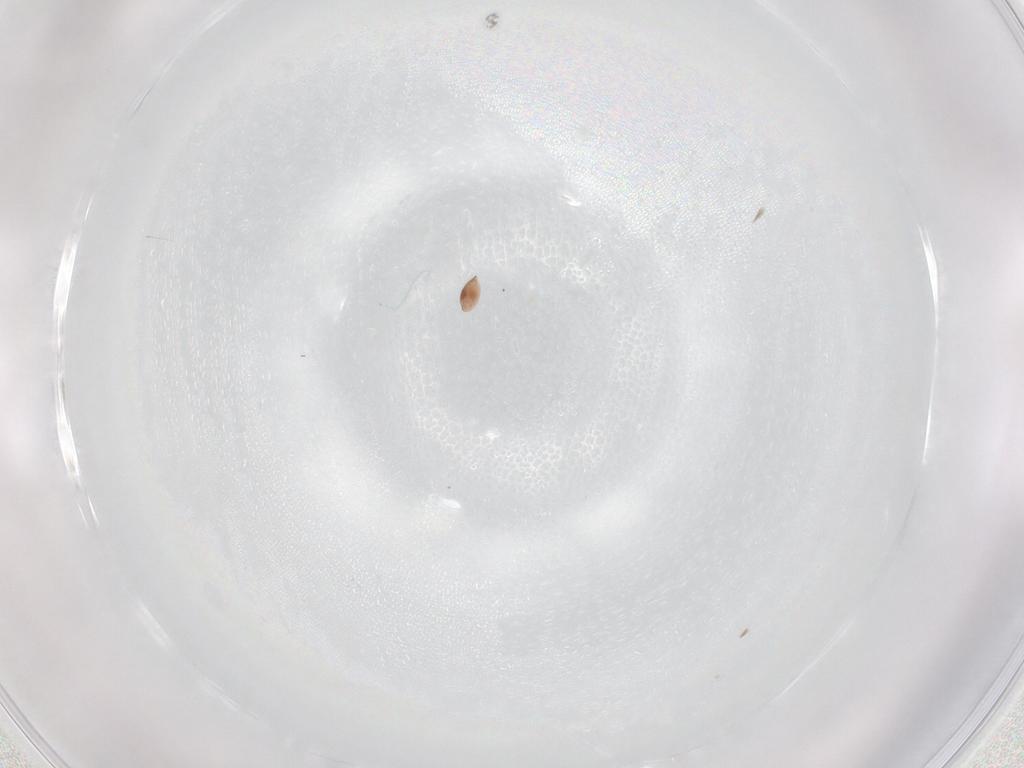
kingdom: Animalia
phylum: Arthropoda
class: Insecta
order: Lepidoptera
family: Crambidae
